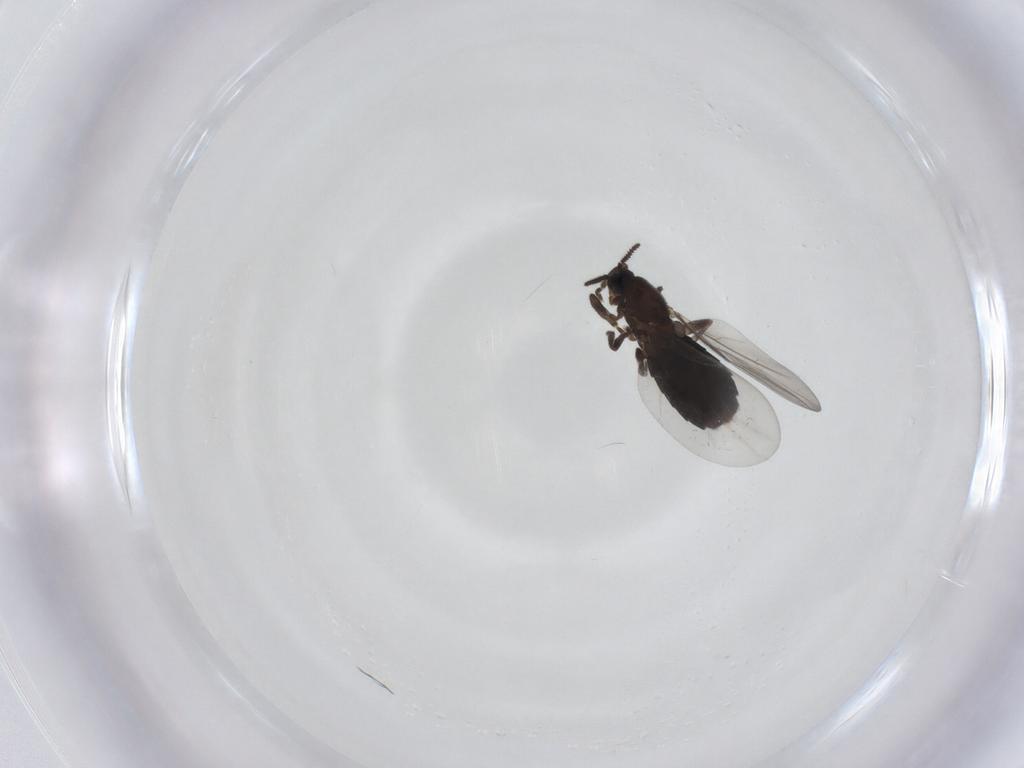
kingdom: Animalia
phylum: Arthropoda
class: Insecta
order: Diptera
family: Scatopsidae
